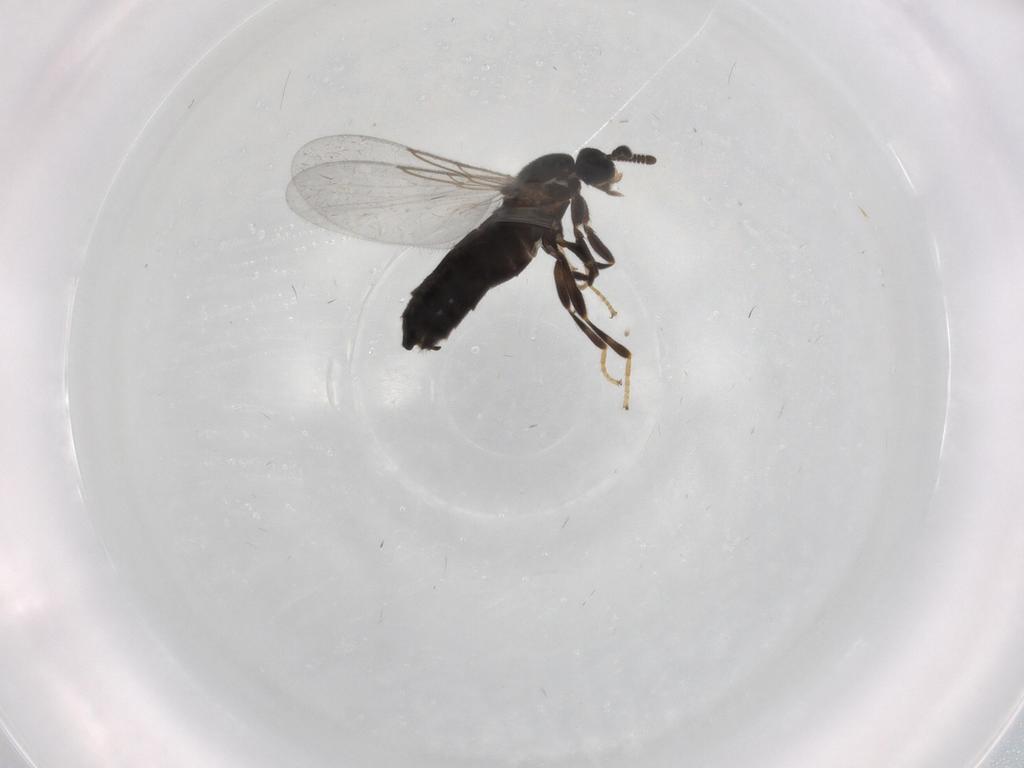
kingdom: Animalia
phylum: Arthropoda
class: Insecta
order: Diptera
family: Scatopsidae
